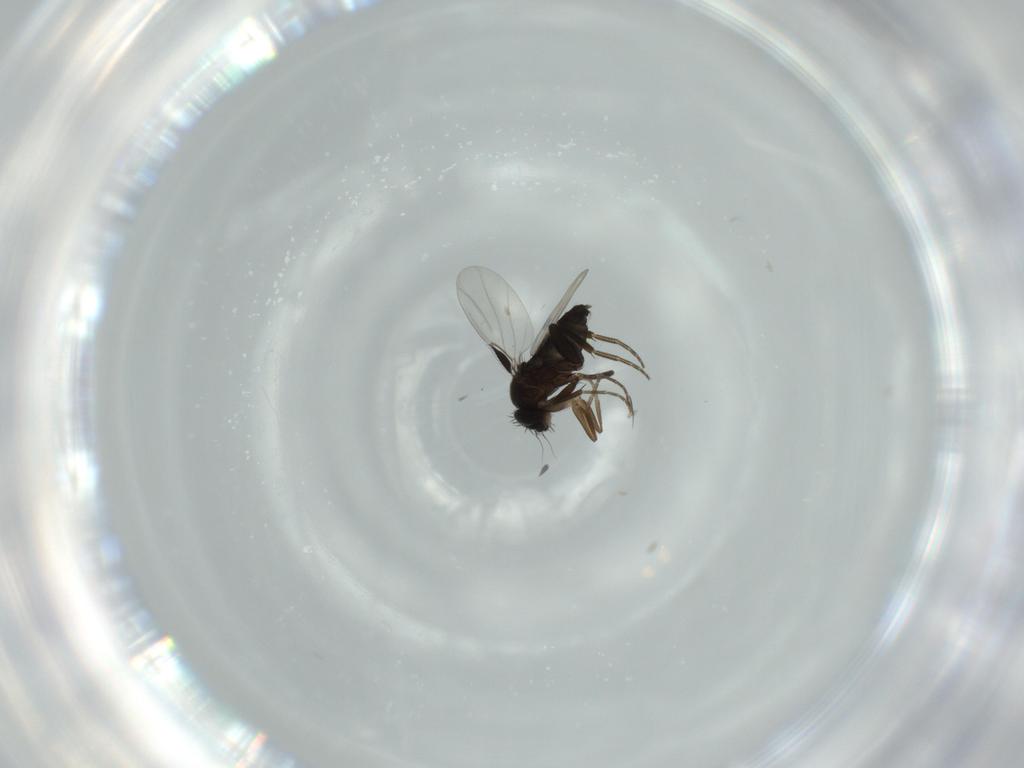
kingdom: Animalia
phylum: Arthropoda
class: Insecta
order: Diptera
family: Phoridae
